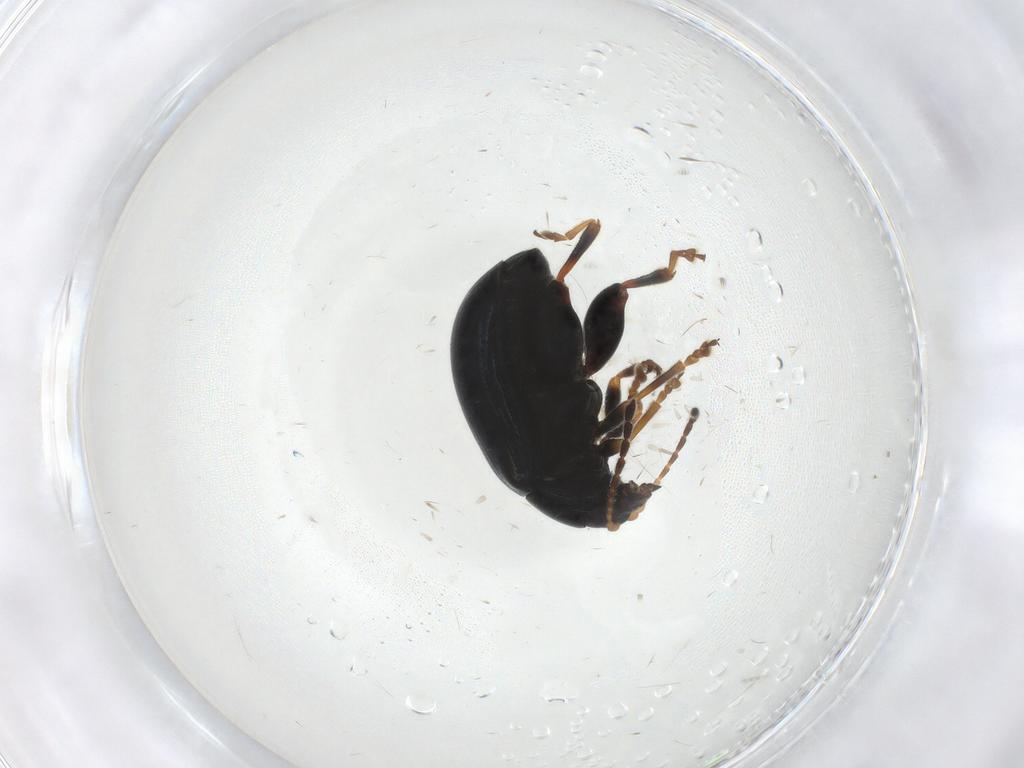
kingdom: Animalia
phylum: Arthropoda
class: Insecta
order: Coleoptera
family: Chrysomelidae
